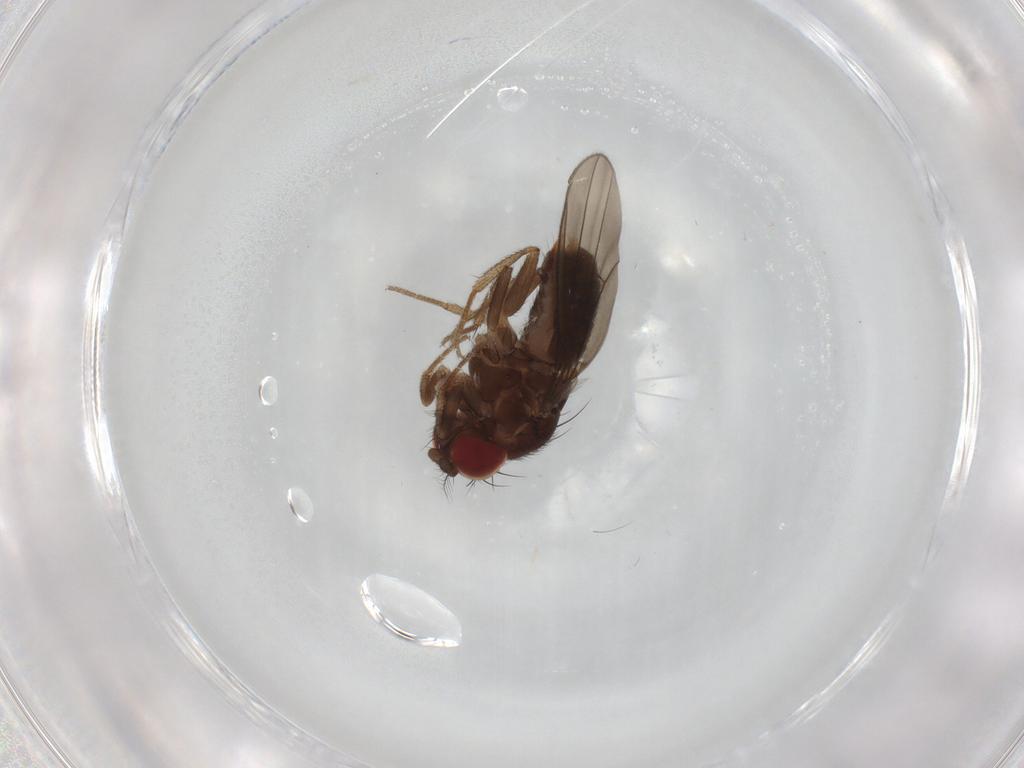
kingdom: Animalia
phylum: Arthropoda
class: Insecta
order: Diptera
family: Drosophilidae
